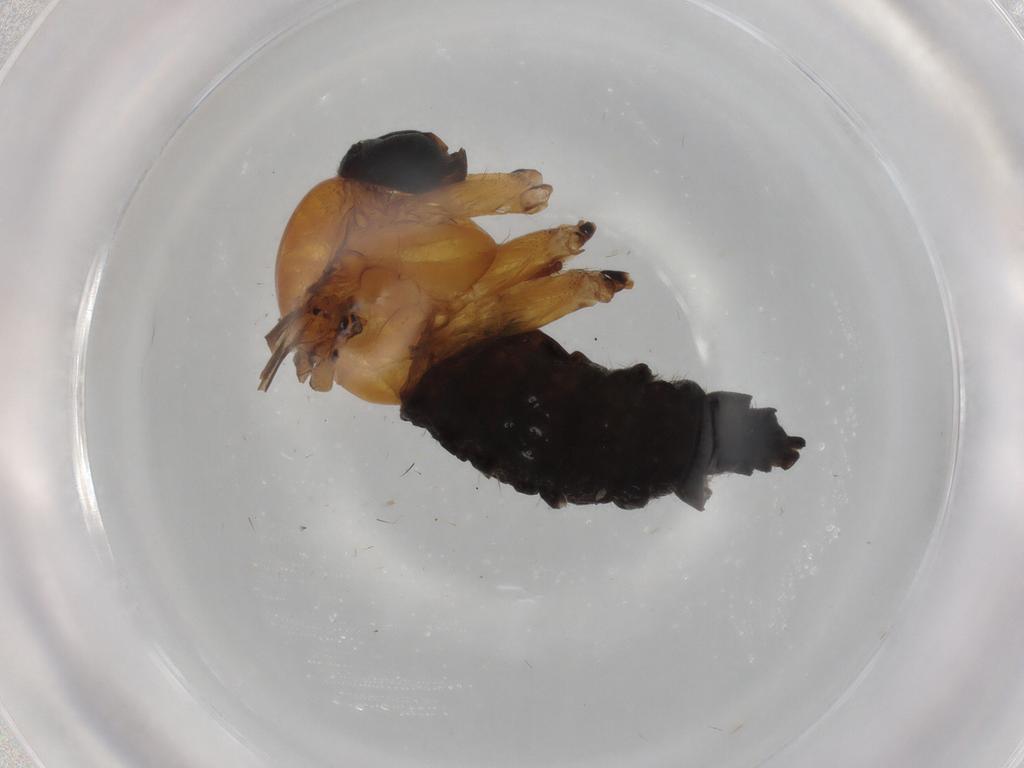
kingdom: Animalia
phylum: Arthropoda
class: Insecta
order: Diptera
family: Sciaridae
